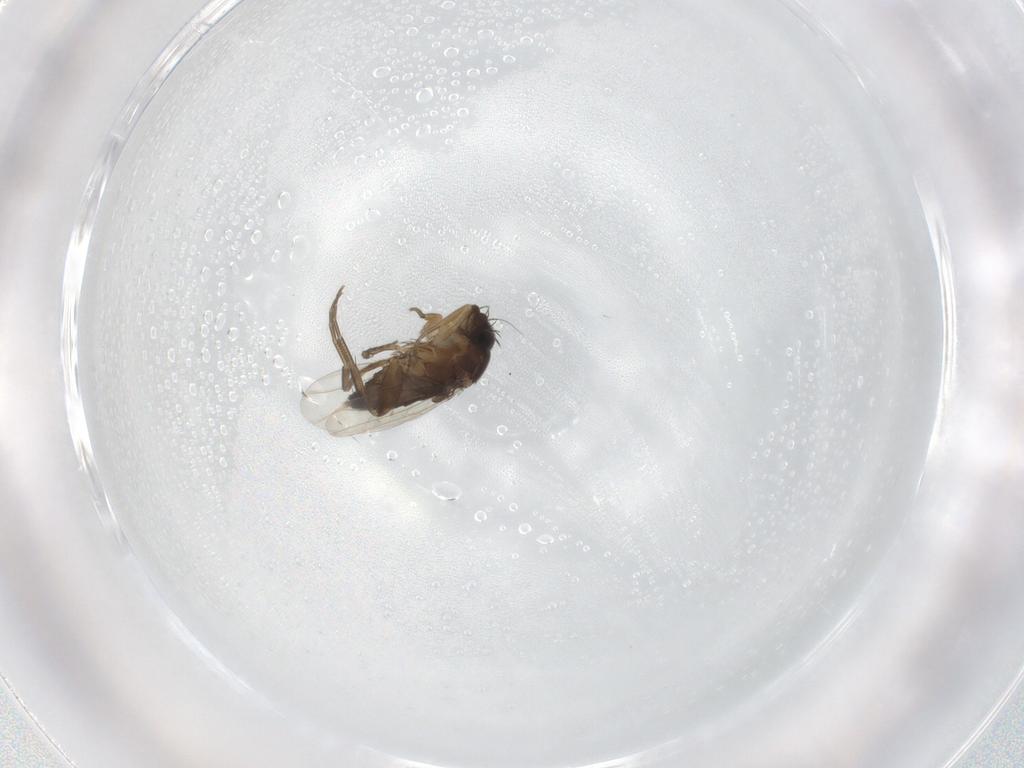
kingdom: Animalia
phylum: Arthropoda
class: Insecta
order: Diptera
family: Phoridae
